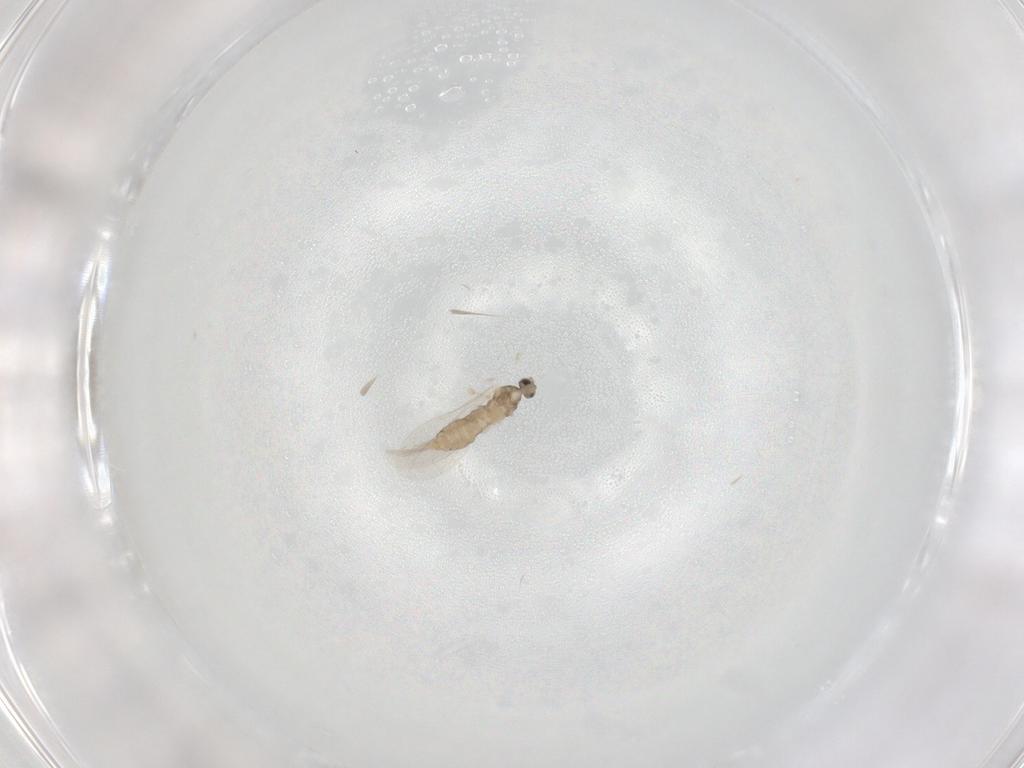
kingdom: Animalia
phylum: Arthropoda
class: Insecta
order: Diptera
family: Cecidomyiidae
